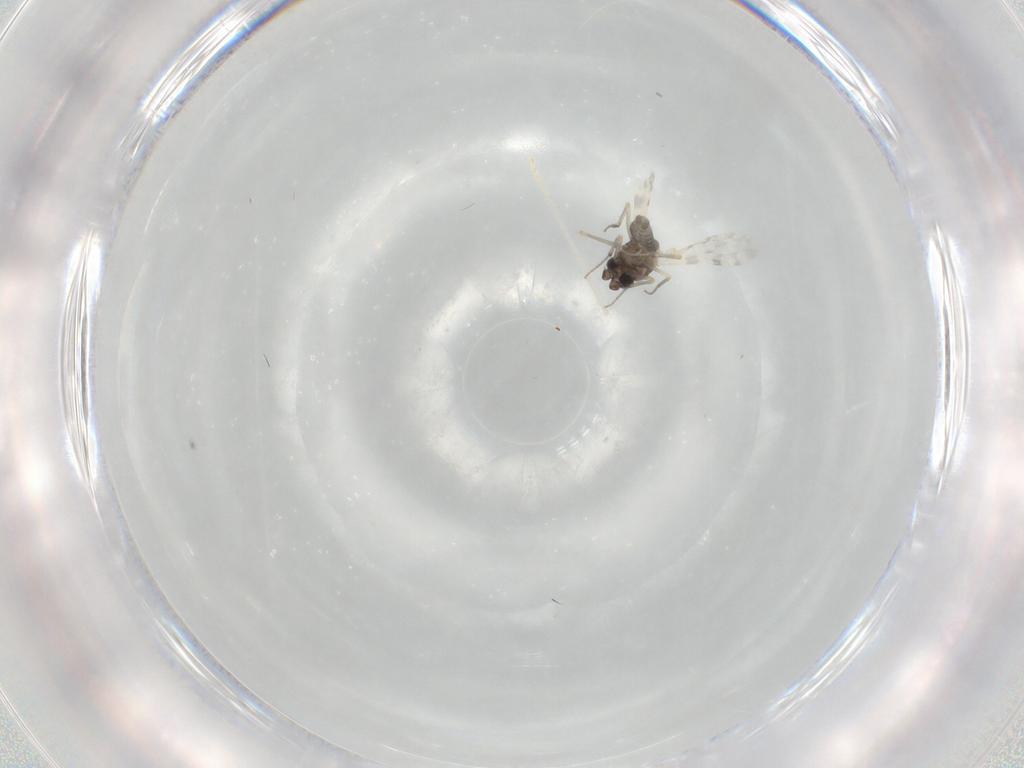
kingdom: Animalia
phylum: Arthropoda
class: Insecta
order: Diptera
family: Ceratopogonidae
